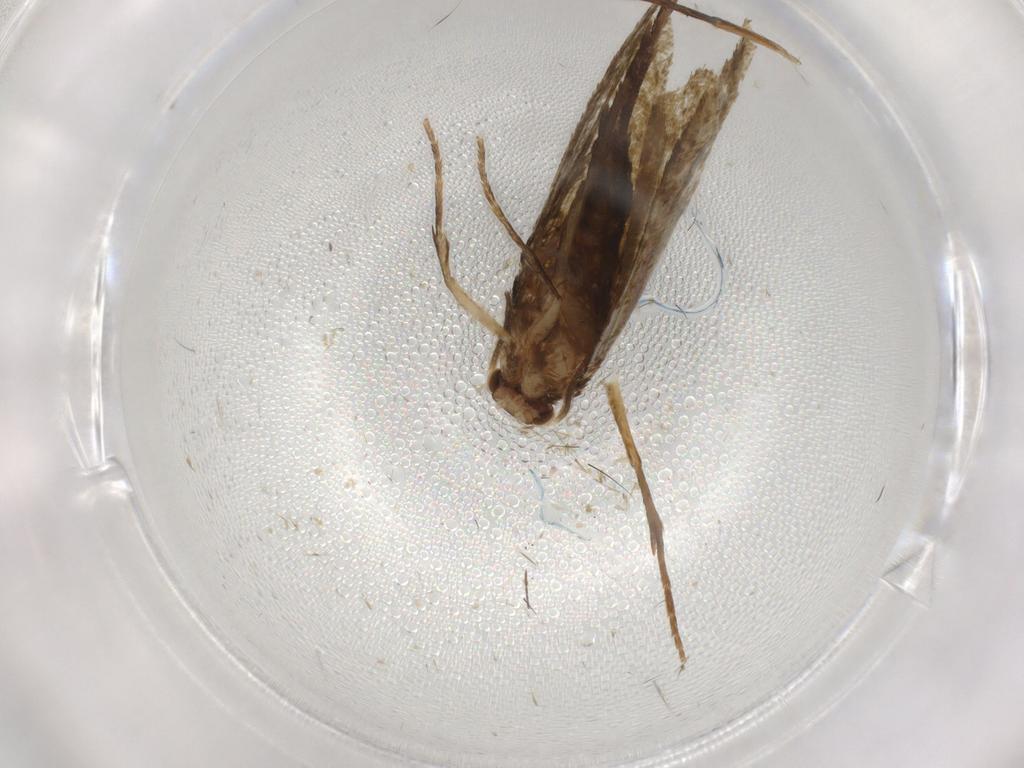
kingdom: Animalia
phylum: Arthropoda
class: Insecta
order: Lepidoptera
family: Tineidae
